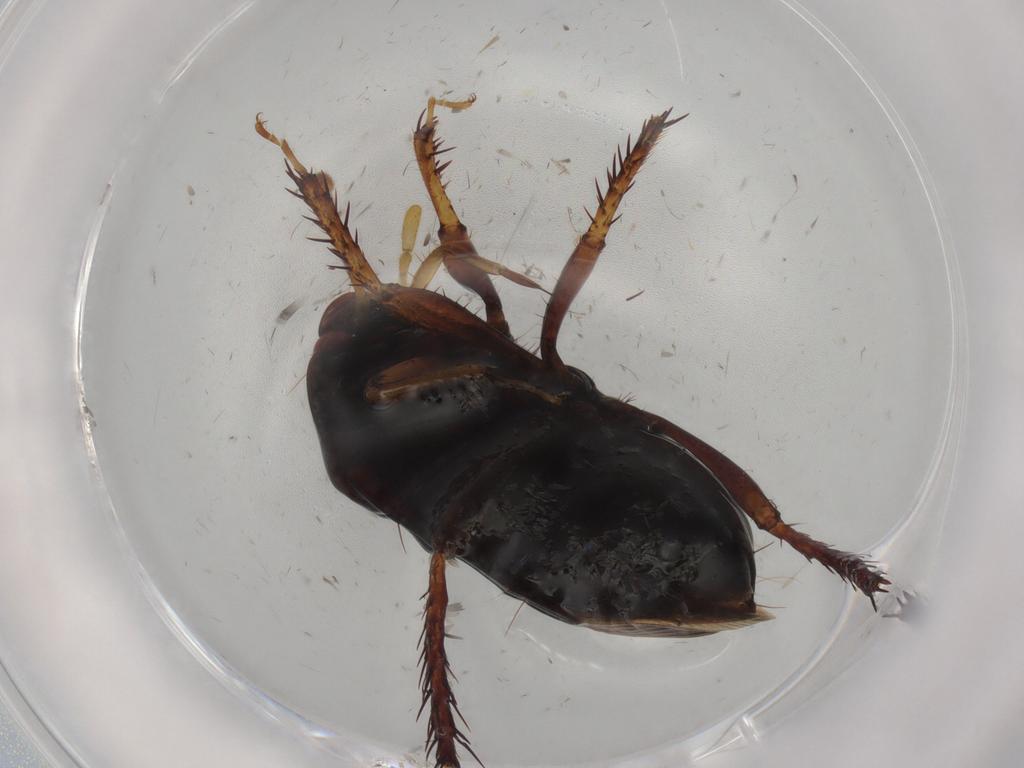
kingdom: Animalia
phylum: Arthropoda
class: Insecta
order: Hemiptera
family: Cydnidae
